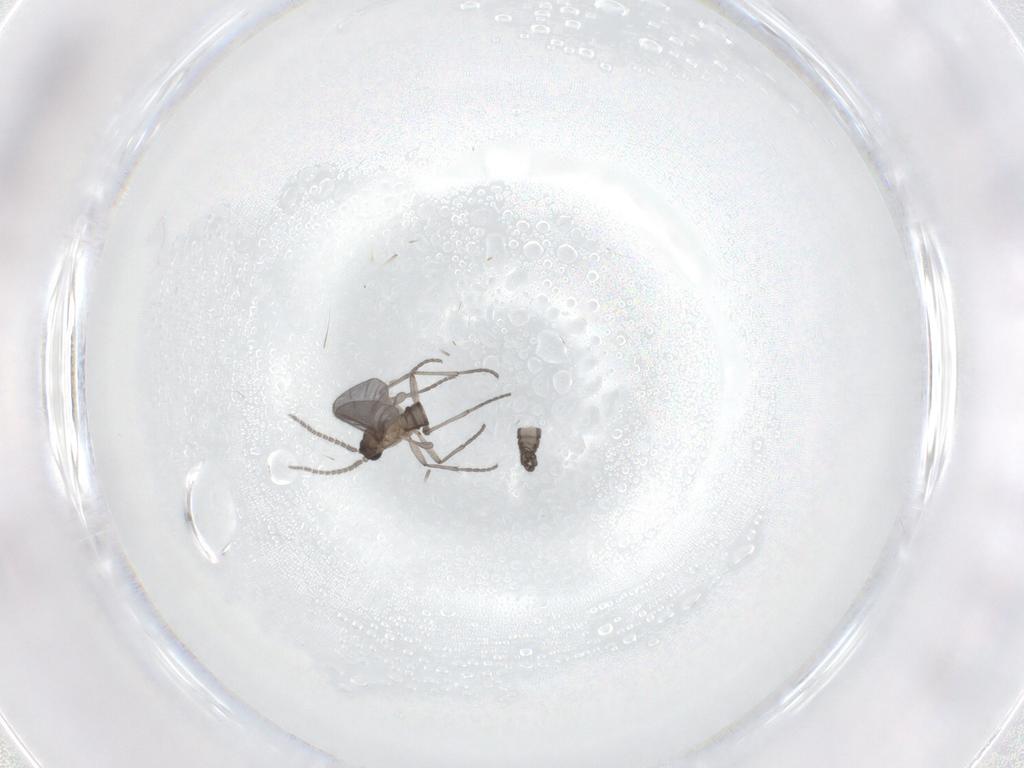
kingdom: Animalia
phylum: Arthropoda
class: Insecta
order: Diptera
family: Sciaridae
